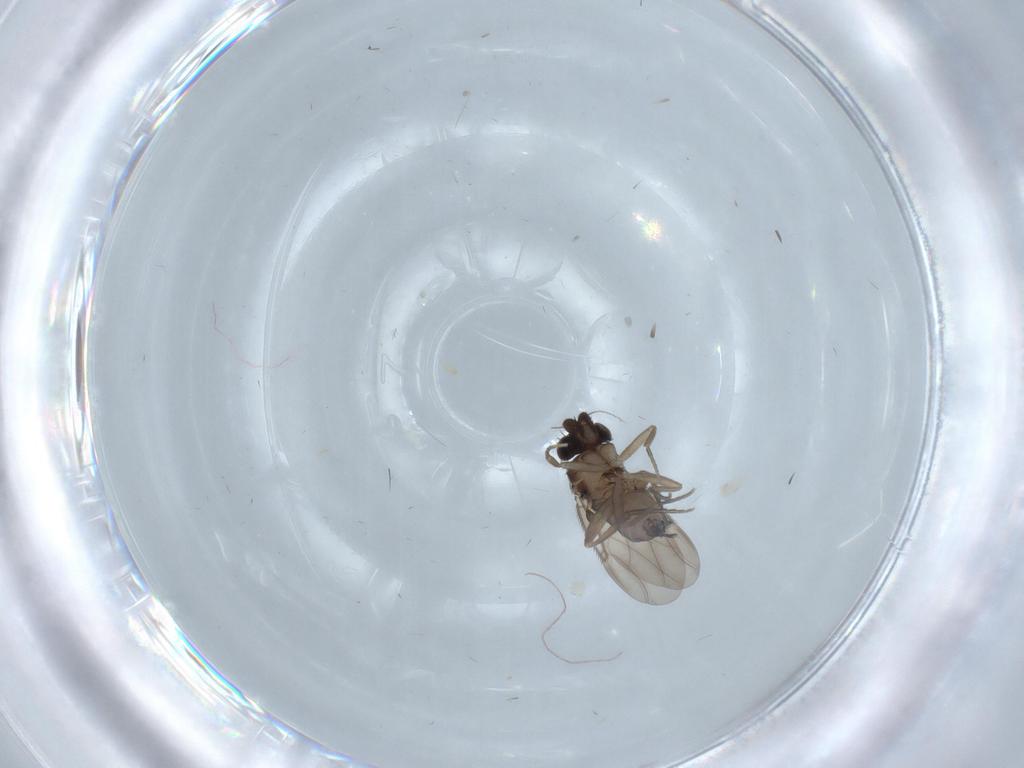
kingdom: Animalia
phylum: Arthropoda
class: Insecta
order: Diptera
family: Phoridae
